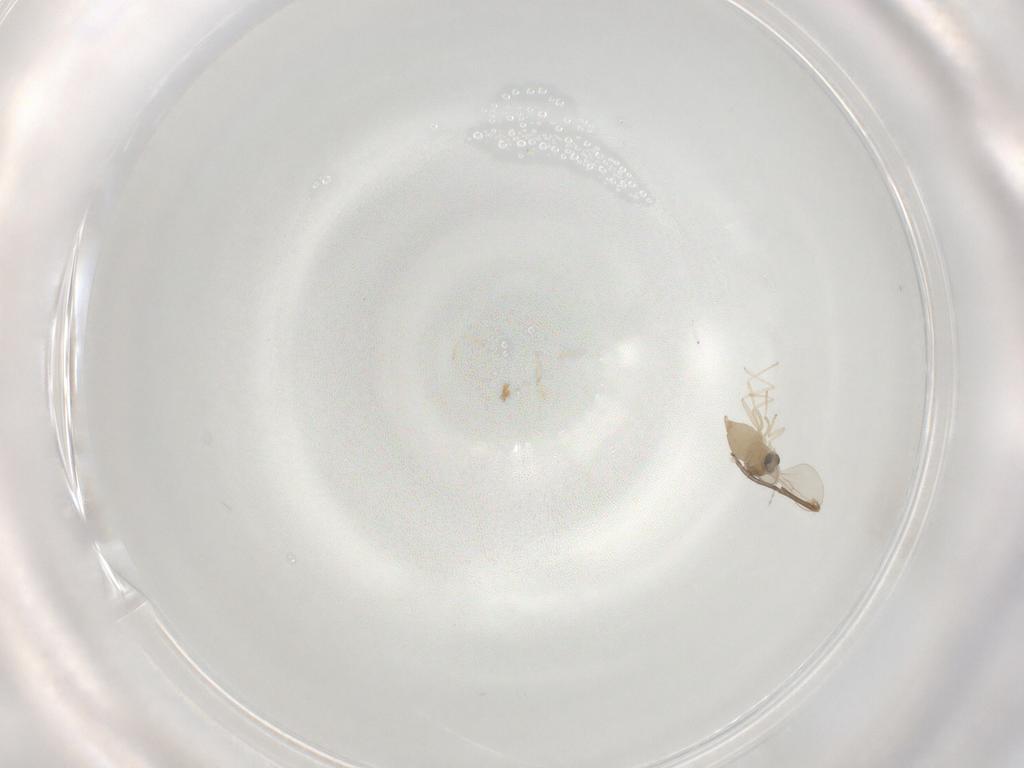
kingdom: Animalia
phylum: Arthropoda
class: Insecta
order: Diptera
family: Cecidomyiidae
